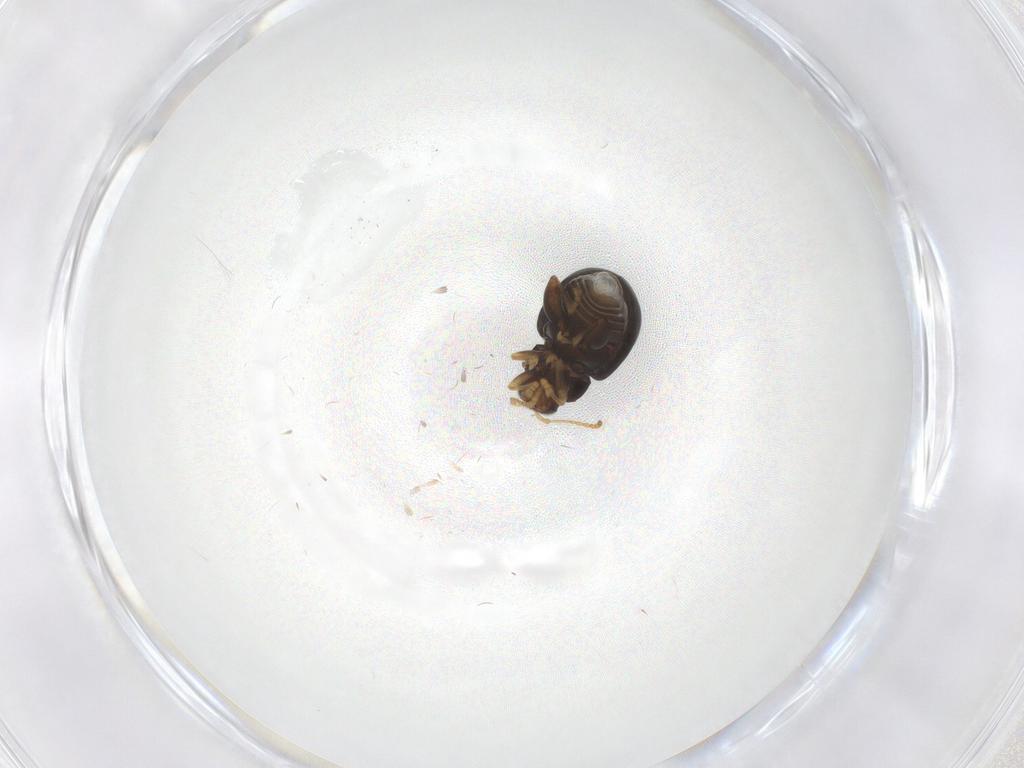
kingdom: Animalia
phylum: Arthropoda
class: Insecta
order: Coleoptera
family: Chrysomelidae
